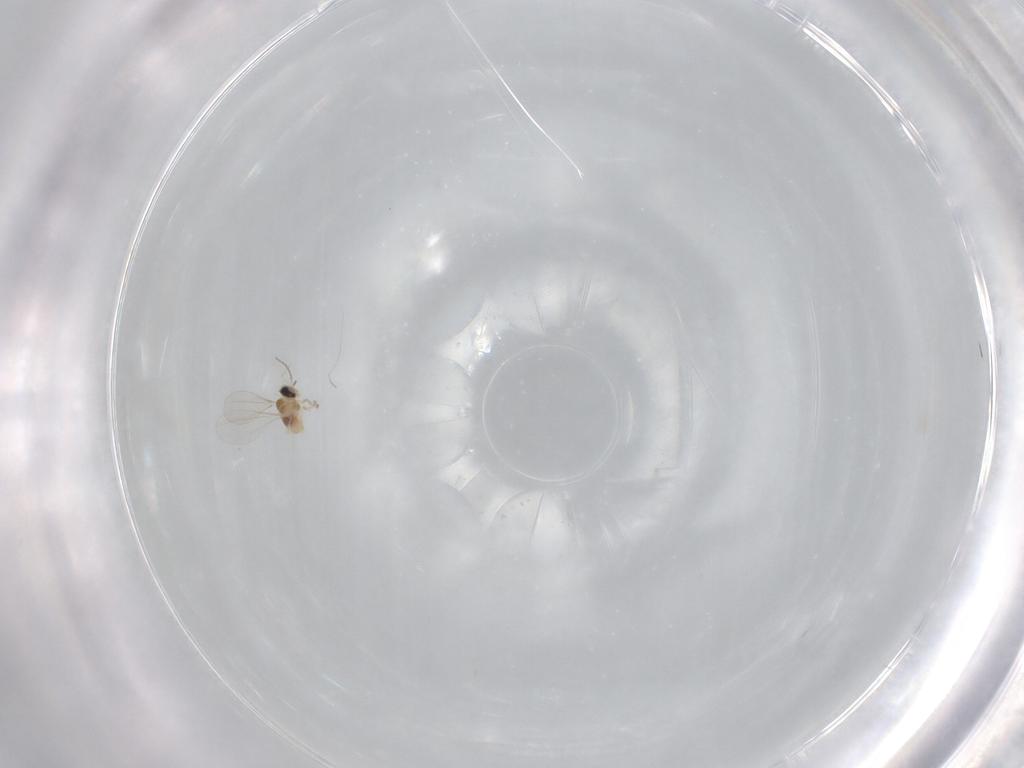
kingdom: Animalia
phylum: Arthropoda
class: Insecta
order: Diptera
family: Cecidomyiidae
